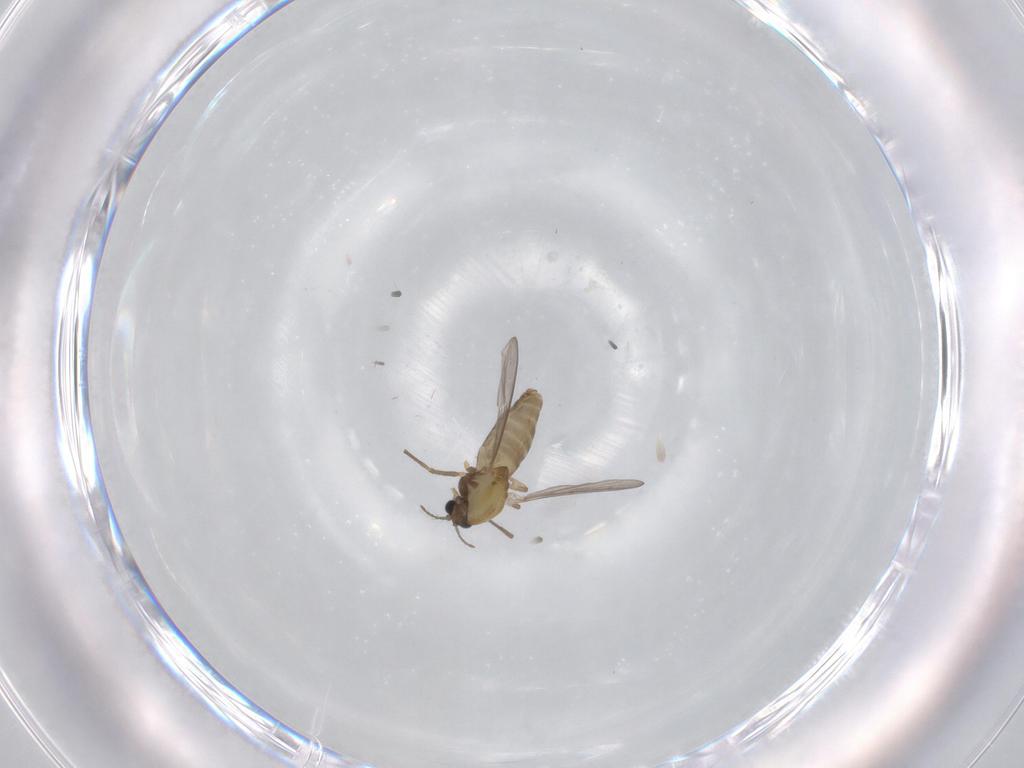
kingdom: Animalia
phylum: Arthropoda
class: Insecta
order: Diptera
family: Chironomidae
